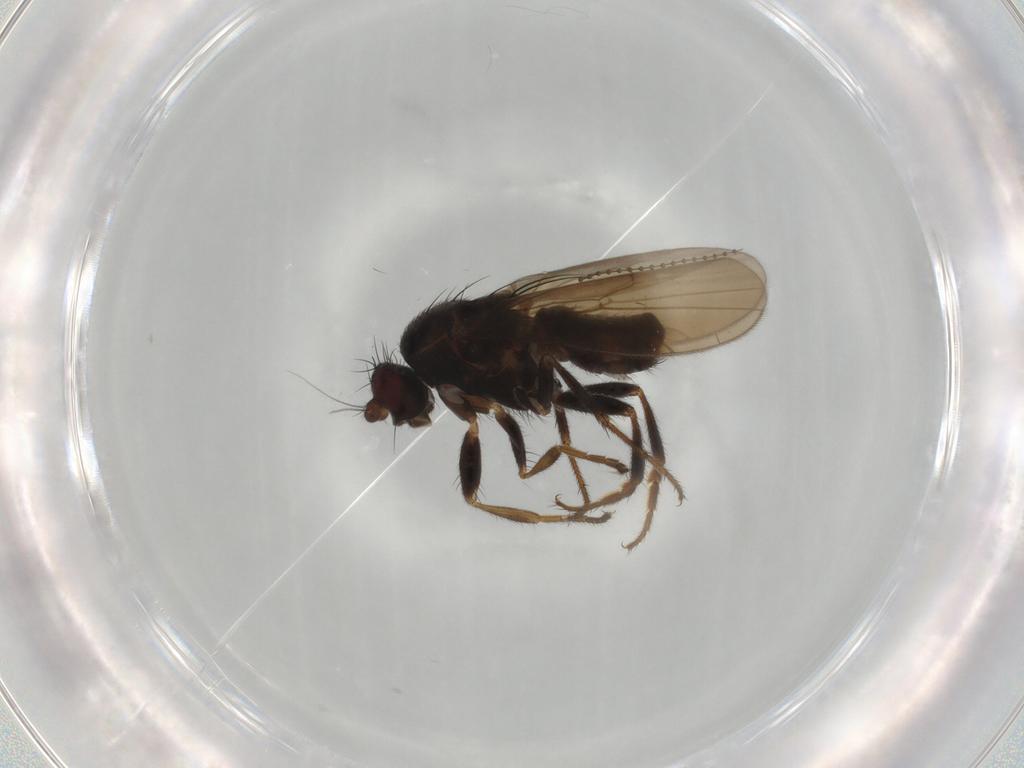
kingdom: Animalia
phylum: Arthropoda
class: Insecta
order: Diptera
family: Sphaeroceridae
